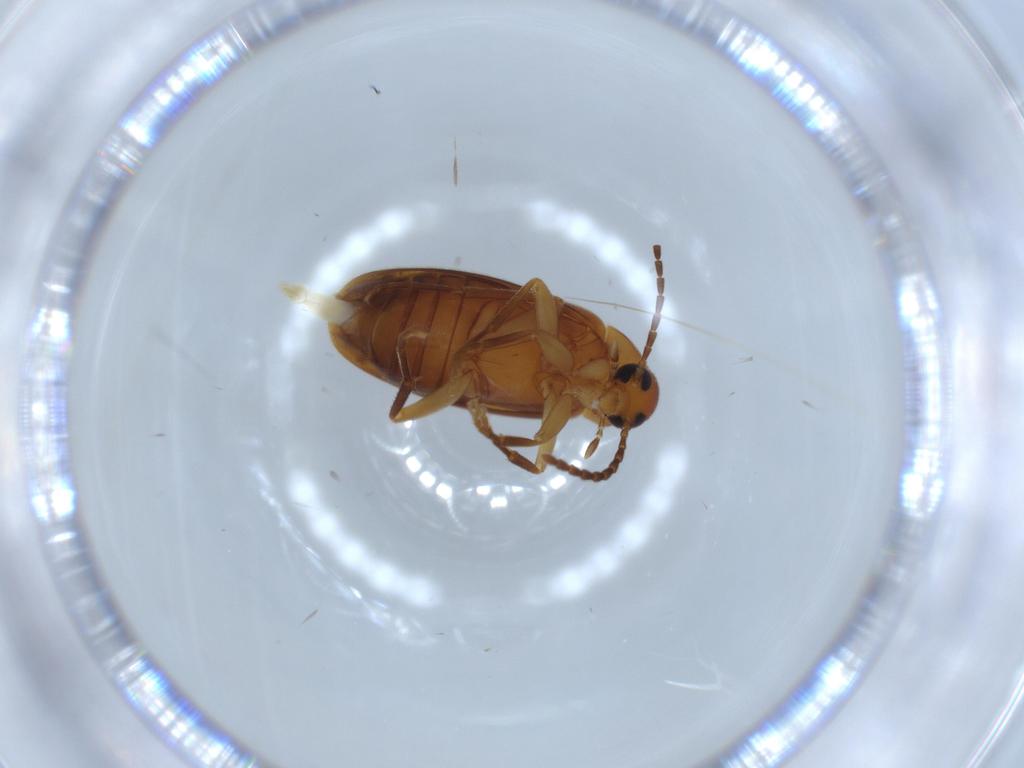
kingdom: Animalia
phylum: Arthropoda
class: Insecta
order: Coleoptera
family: Scraptiidae
